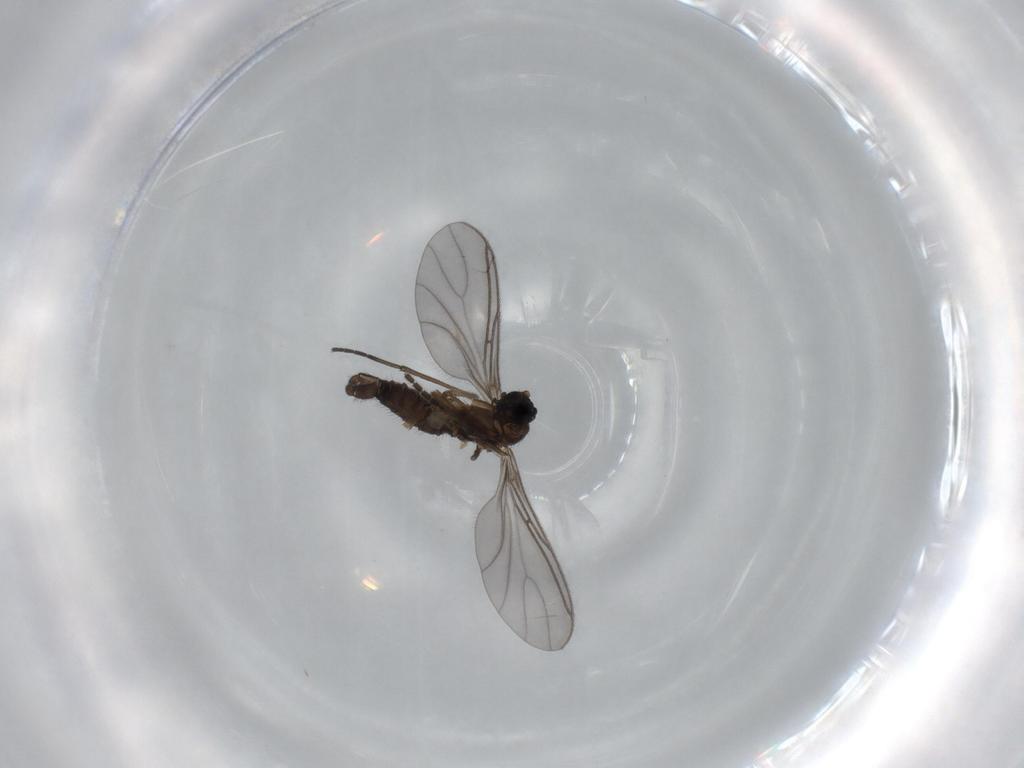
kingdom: Animalia
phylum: Arthropoda
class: Insecta
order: Diptera
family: Sciaridae
